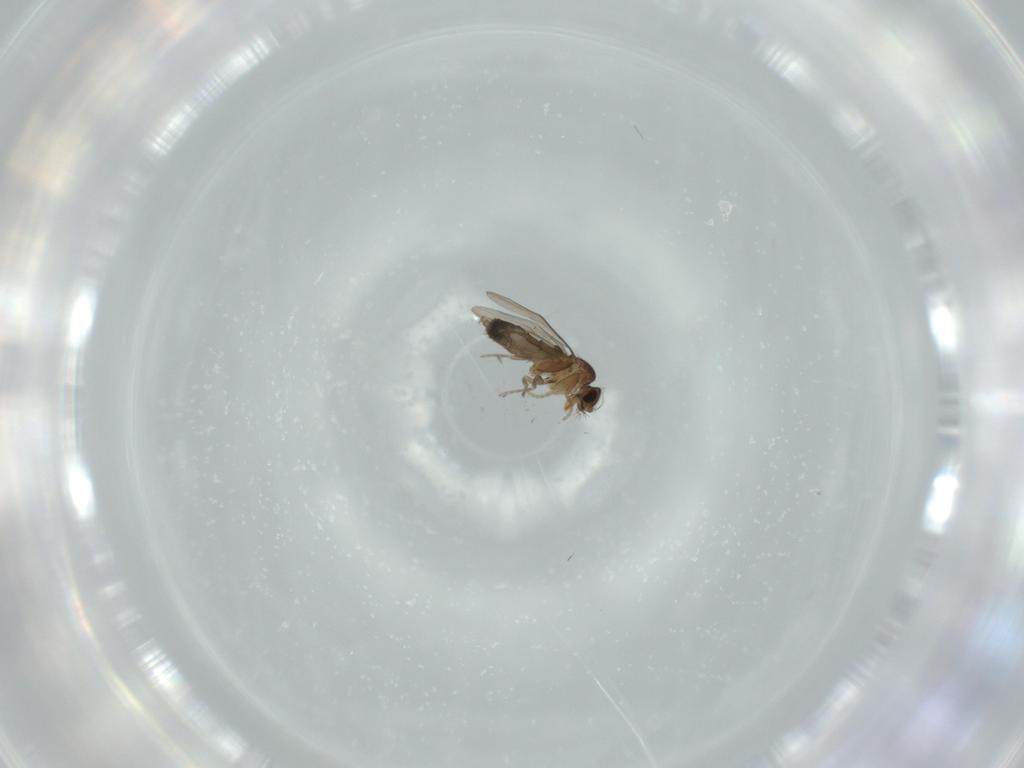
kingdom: Animalia
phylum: Arthropoda
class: Insecta
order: Diptera
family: Phoridae
